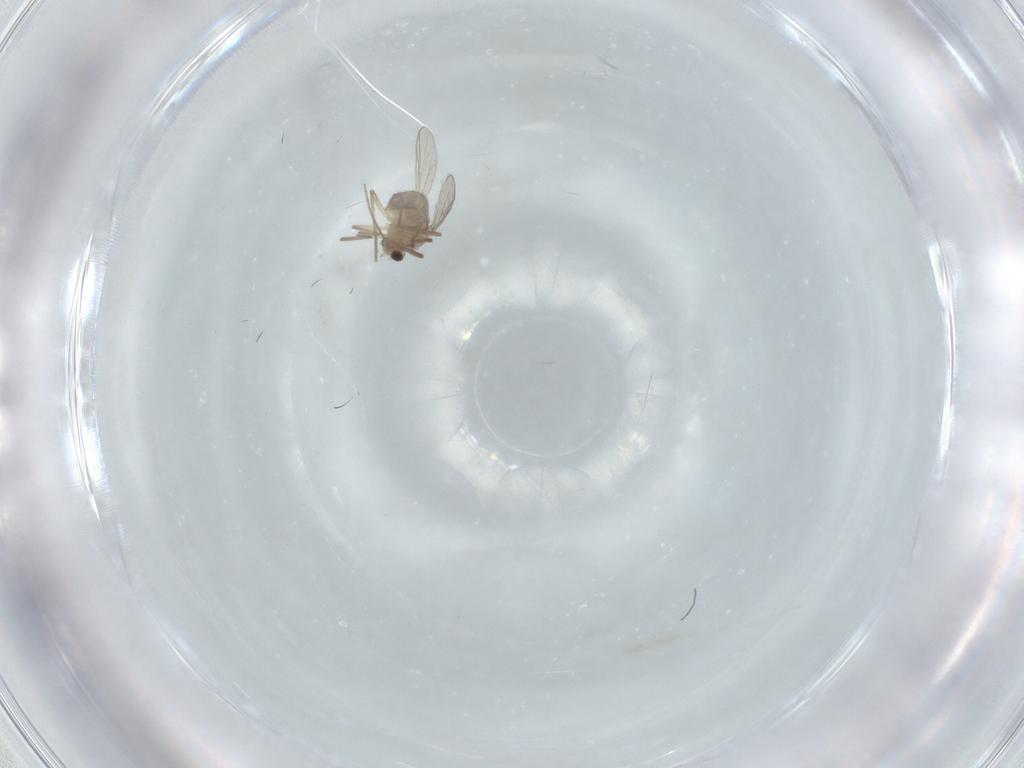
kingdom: Animalia
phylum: Arthropoda
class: Insecta
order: Diptera
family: Chironomidae
